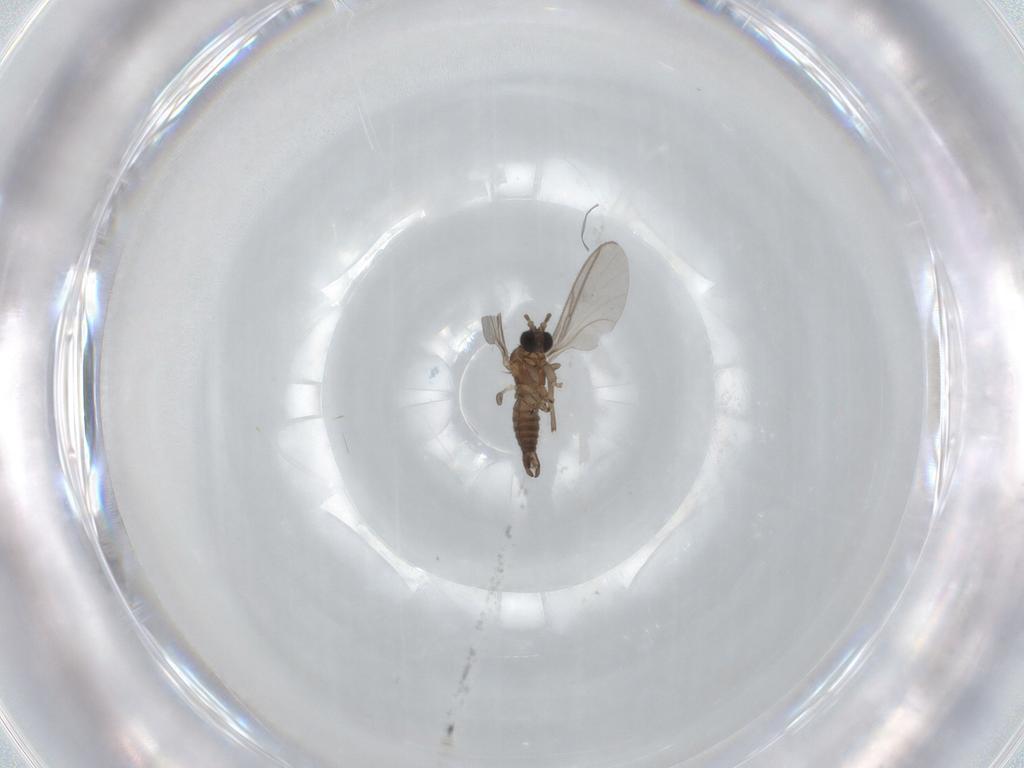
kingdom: Animalia
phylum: Arthropoda
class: Insecta
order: Diptera
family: Sciaridae
